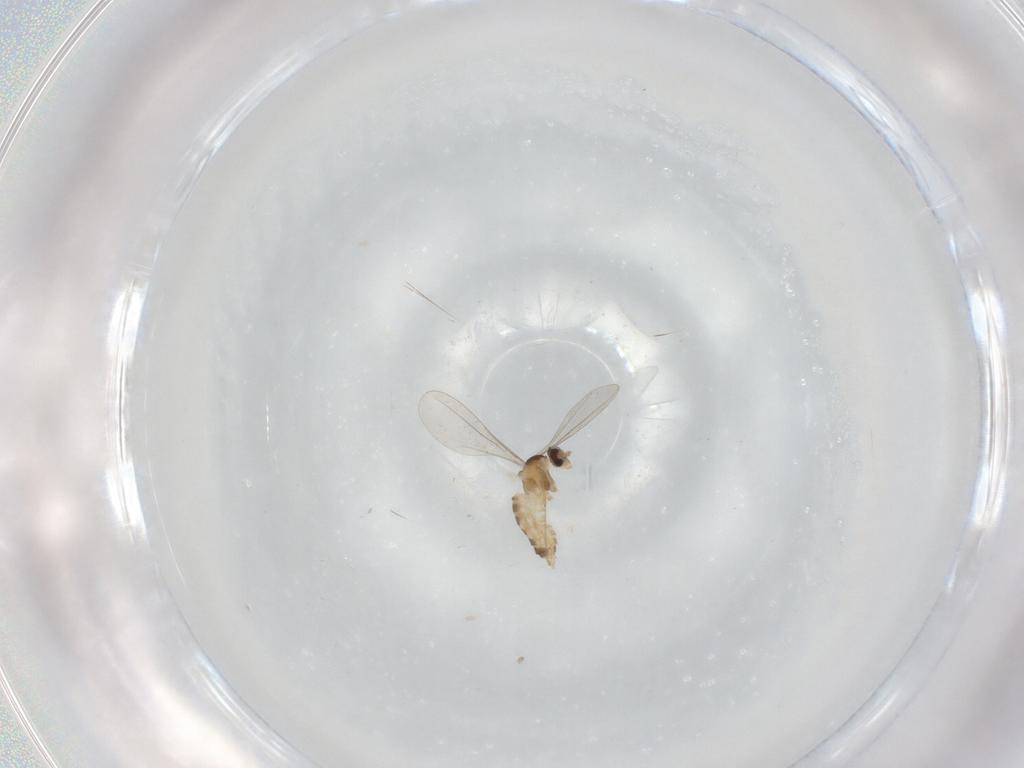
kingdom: Animalia
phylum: Arthropoda
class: Insecta
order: Diptera
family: Cecidomyiidae
